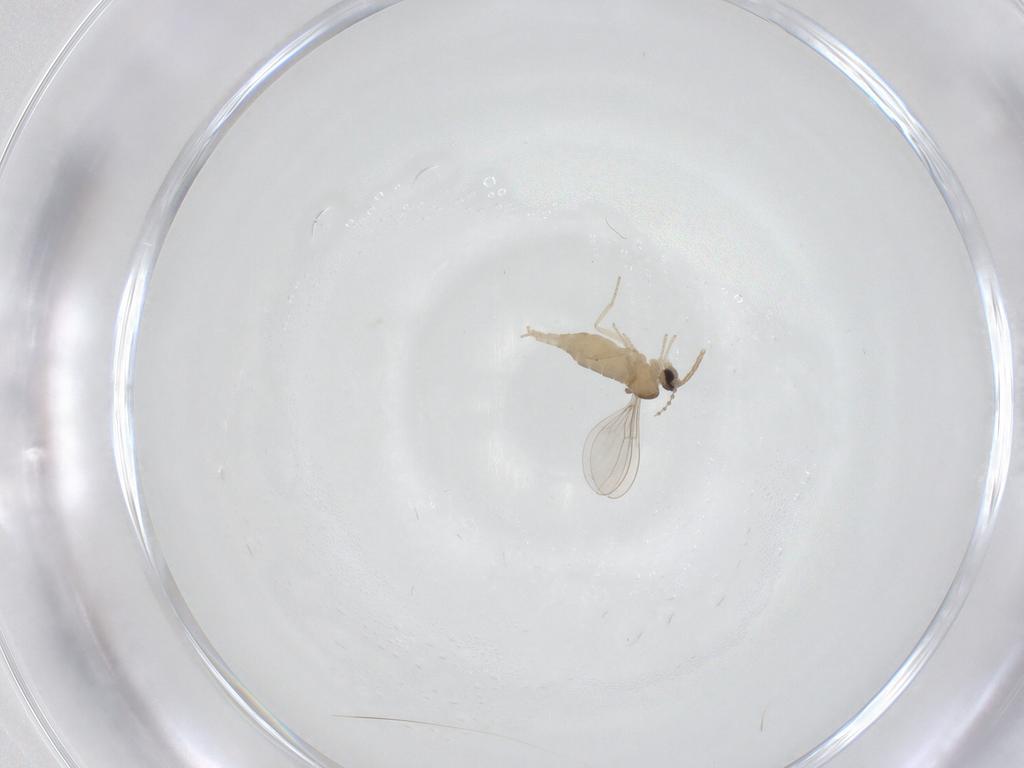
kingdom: Animalia
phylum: Arthropoda
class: Insecta
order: Diptera
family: Cecidomyiidae
